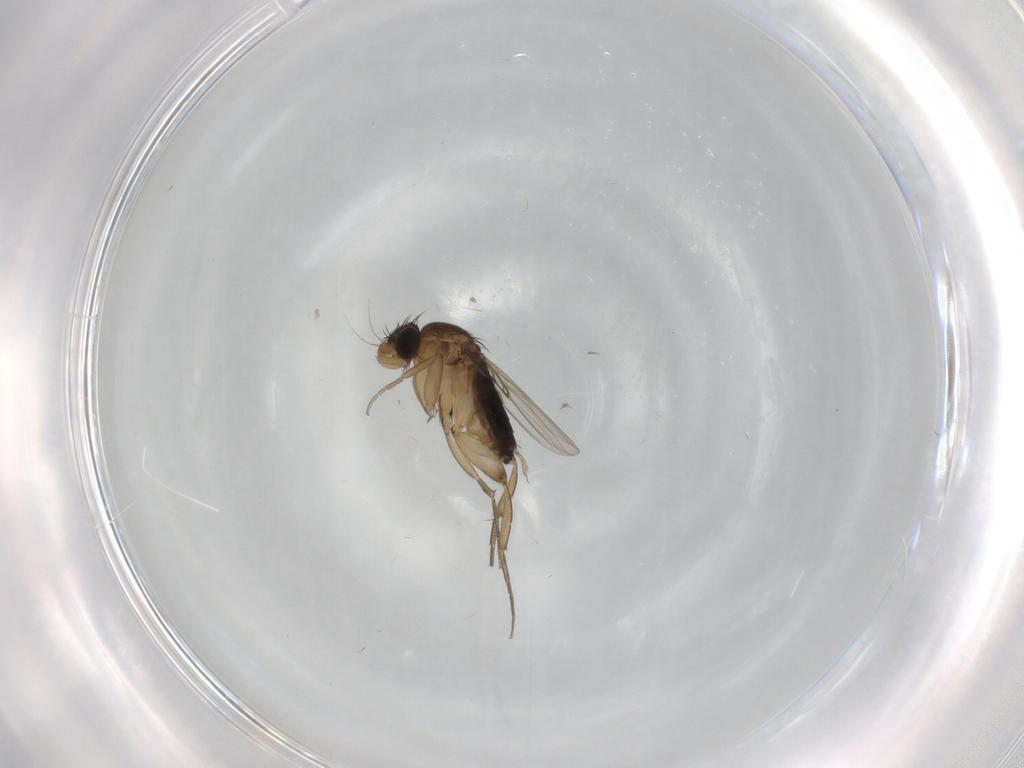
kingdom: Animalia
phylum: Arthropoda
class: Insecta
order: Diptera
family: Cecidomyiidae
